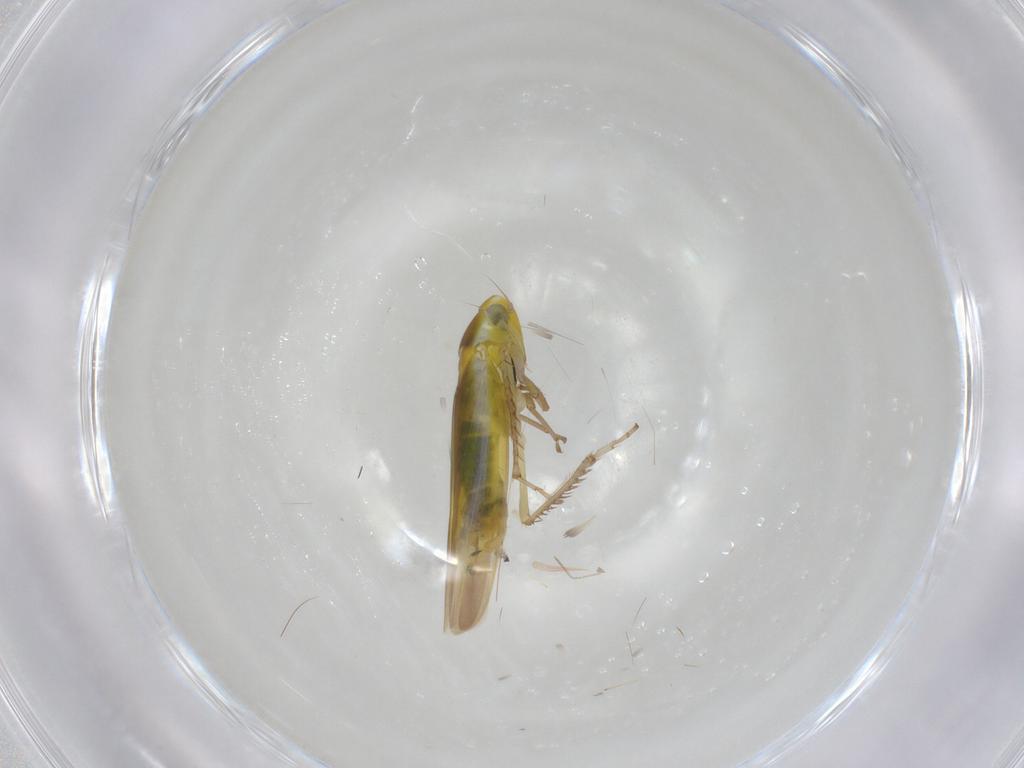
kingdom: Animalia
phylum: Arthropoda
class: Insecta
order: Hemiptera
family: Cicadellidae
